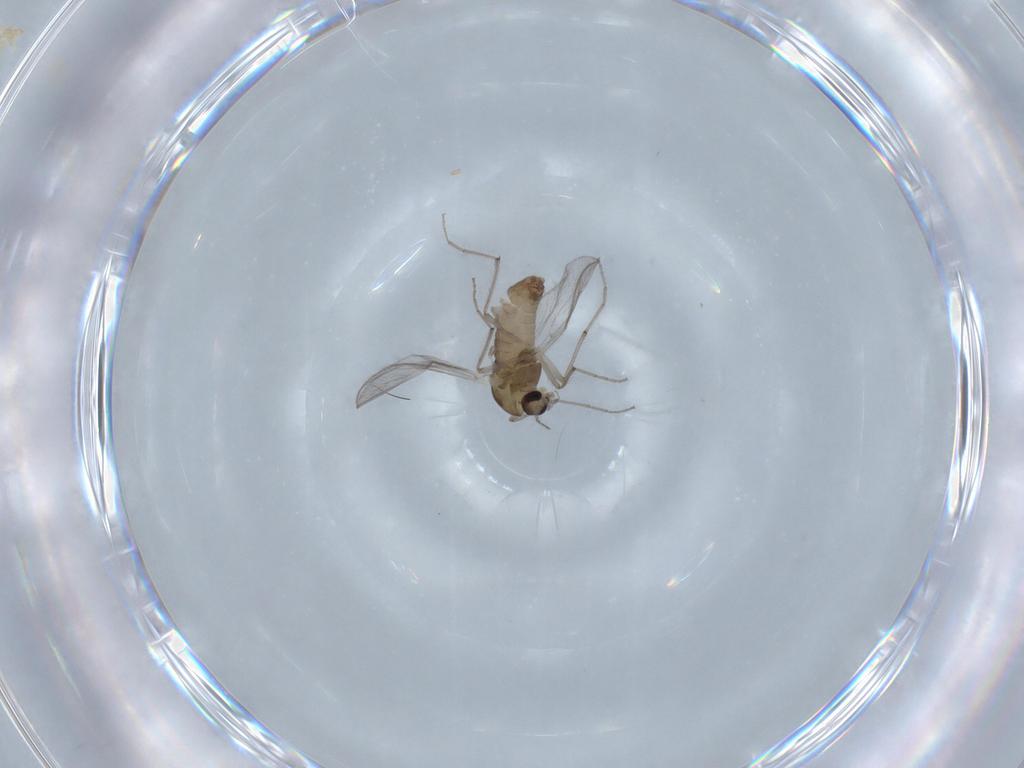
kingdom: Animalia
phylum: Arthropoda
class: Insecta
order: Diptera
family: Chironomidae
